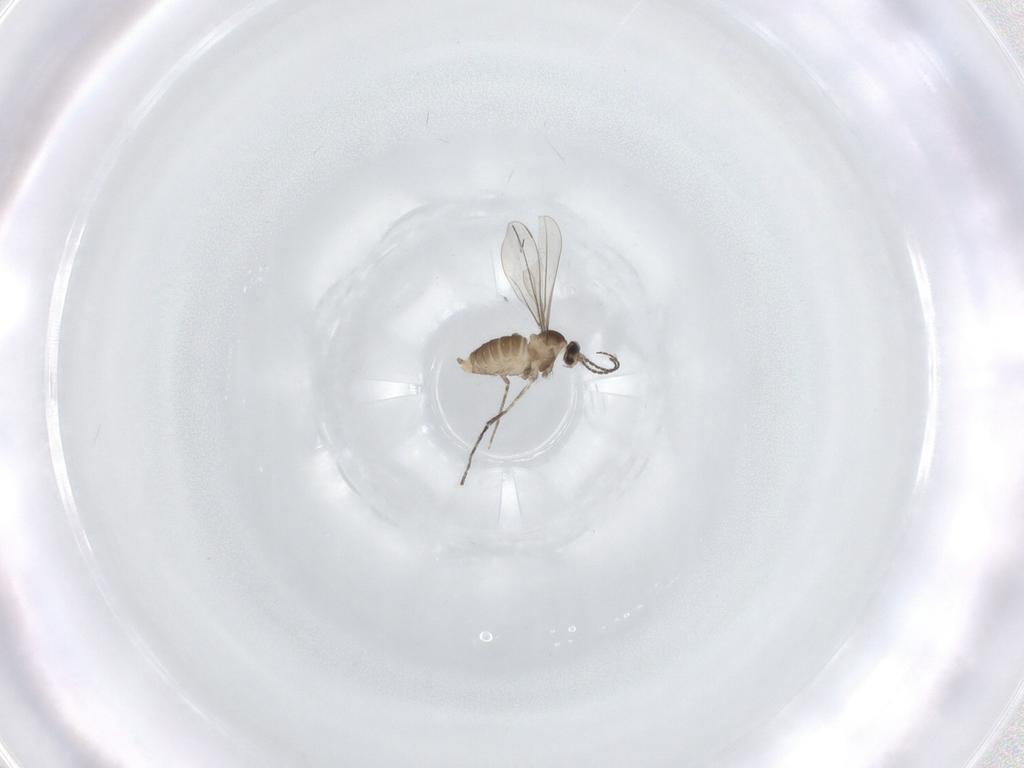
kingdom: Animalia
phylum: Arthropoda
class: Insecta
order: Diptera
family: Cecidomyiidae
